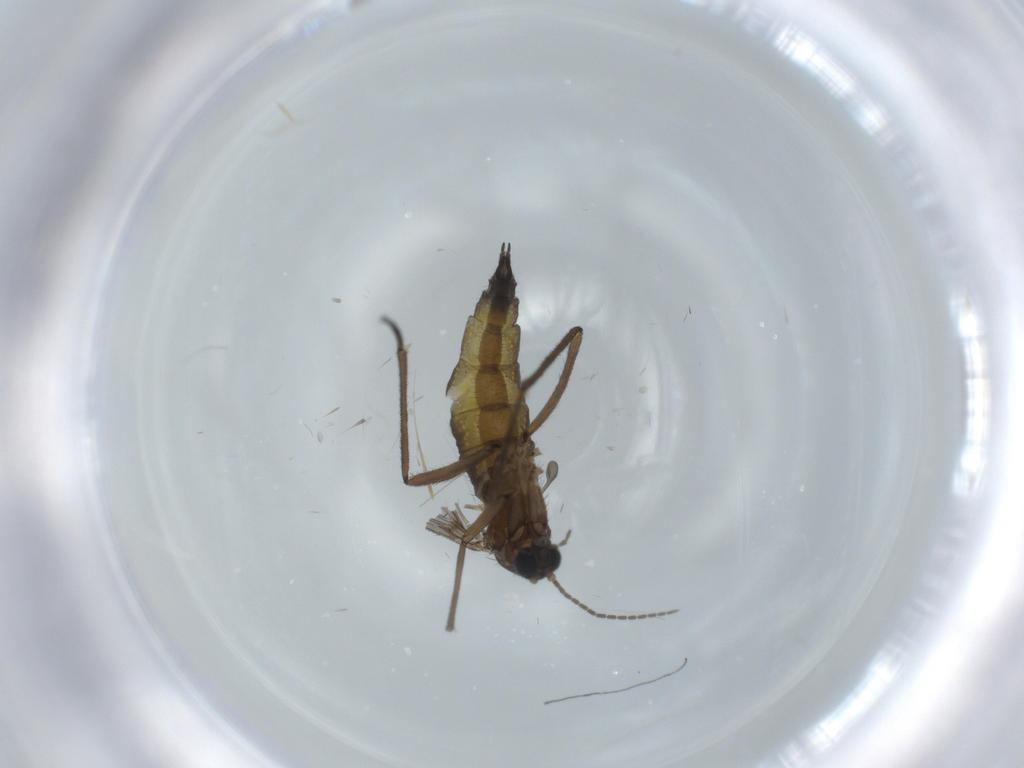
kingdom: Animalia
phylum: Arthropoda
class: Insecta
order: Diptera
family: Sciaridae
